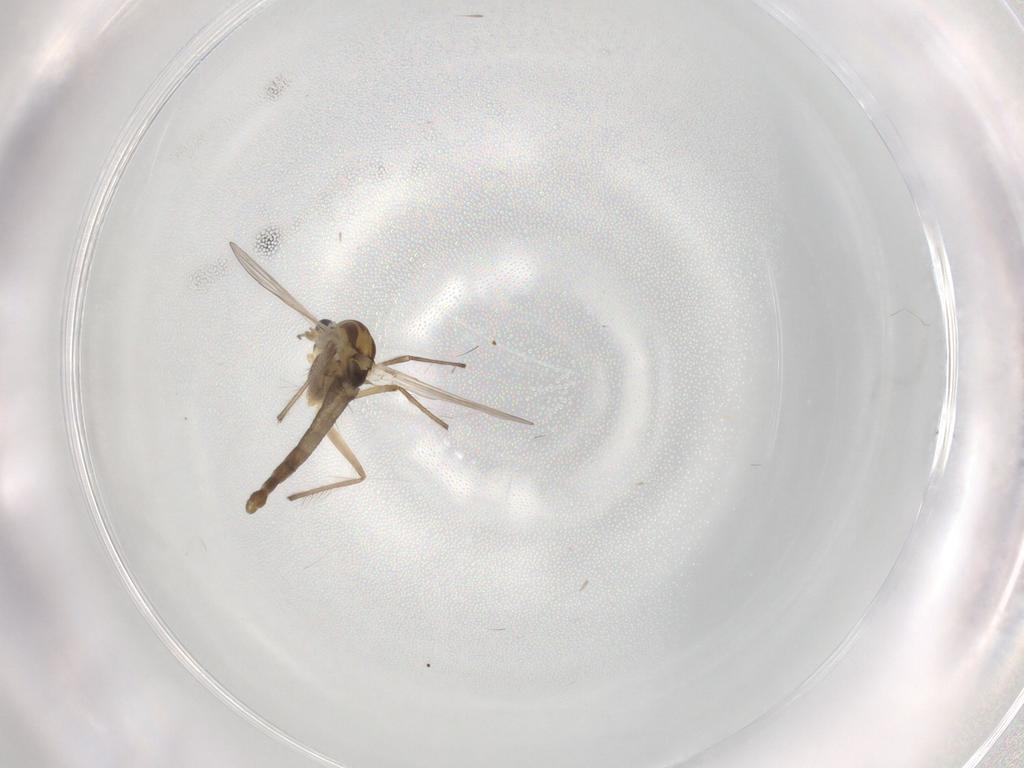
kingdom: Animalia
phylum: Arthropoda
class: Insecta
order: Diptera
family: Chironomidae
